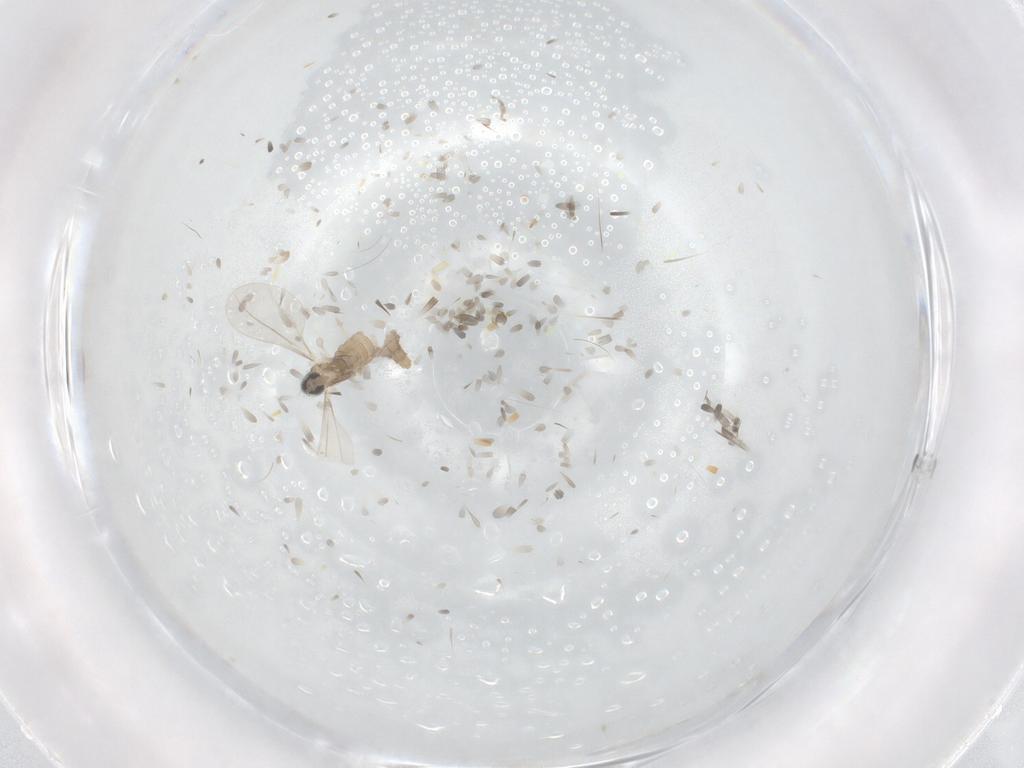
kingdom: Animalia
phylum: Arthropoda
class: Insecta
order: Diptera
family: Cecidomyiidae
